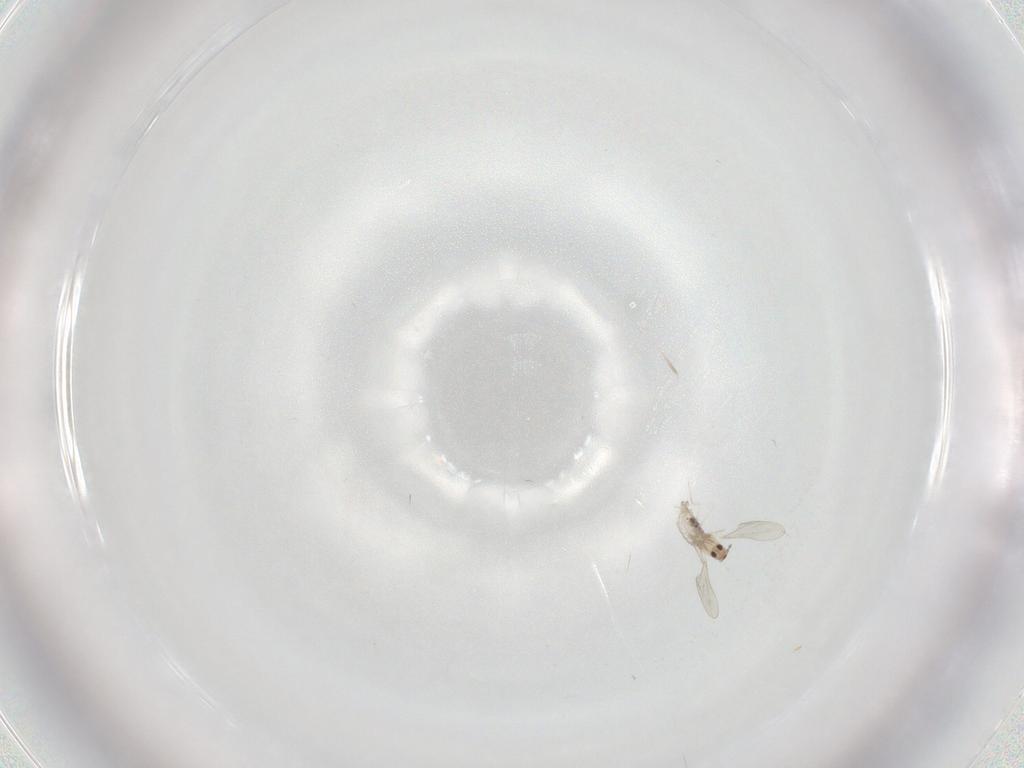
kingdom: Animalia
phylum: Arthropoda
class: Insecta
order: Diptera
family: Cecidomyiidae
